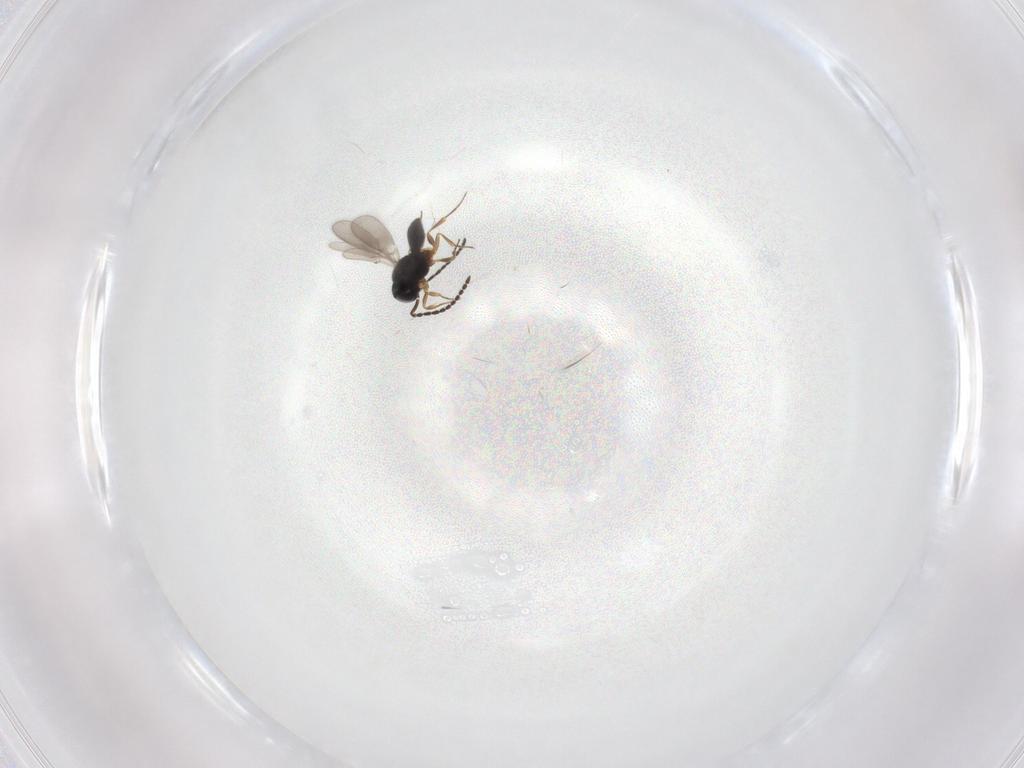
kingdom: Animalia
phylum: Arthropoda
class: Insecta
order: Hymenoptera
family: Scelionidae
